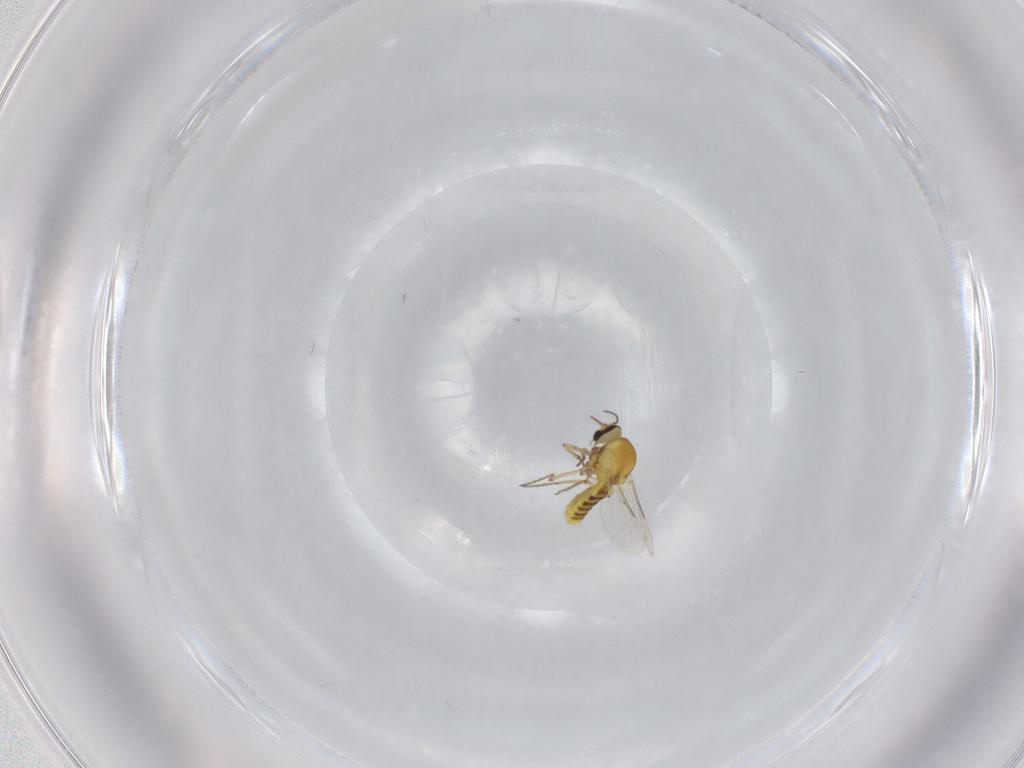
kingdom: Animalia
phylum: Arthropoda
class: Insecta
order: Diptera
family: Ceratopogonidae
